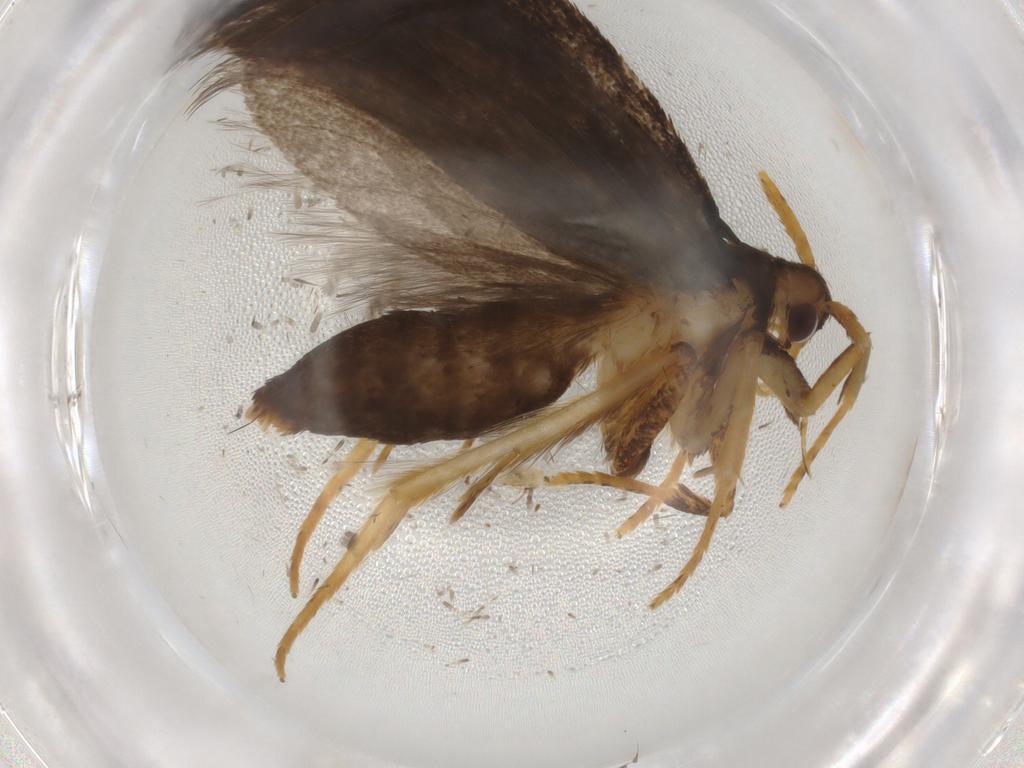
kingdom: Animalia
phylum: Arthropoda
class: Insecta
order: Lepidoptera
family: Lecithoceridae
